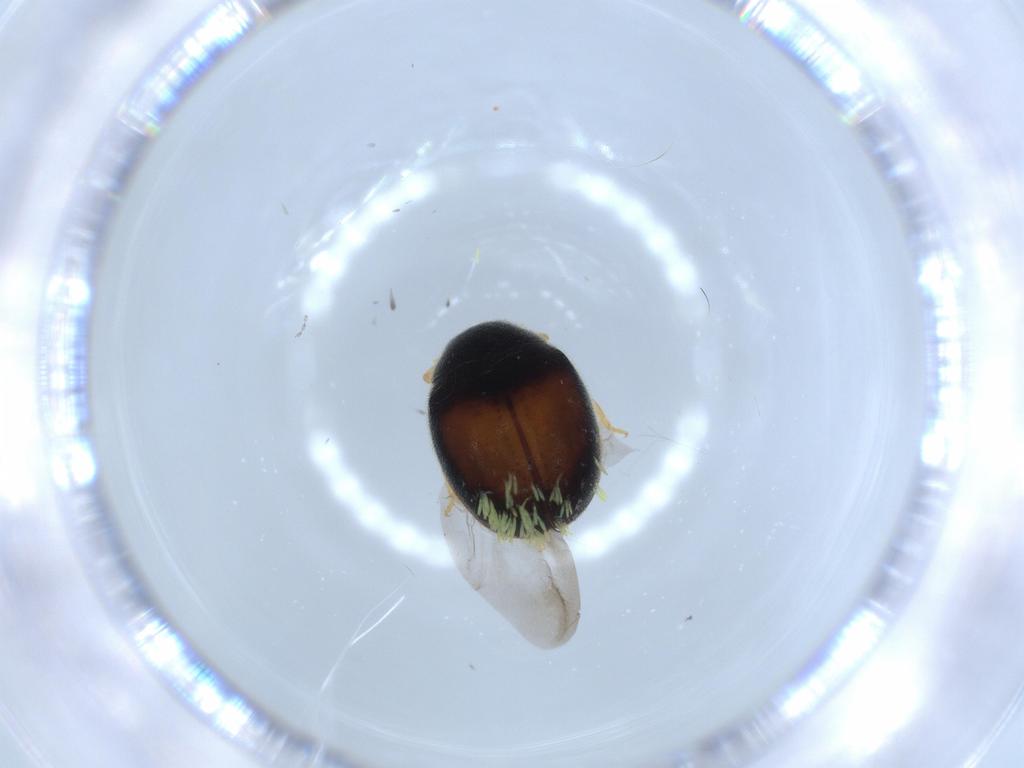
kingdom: Animalia
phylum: Arthropoda
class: Insecta
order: Coleoptera
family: Coccinellidae
